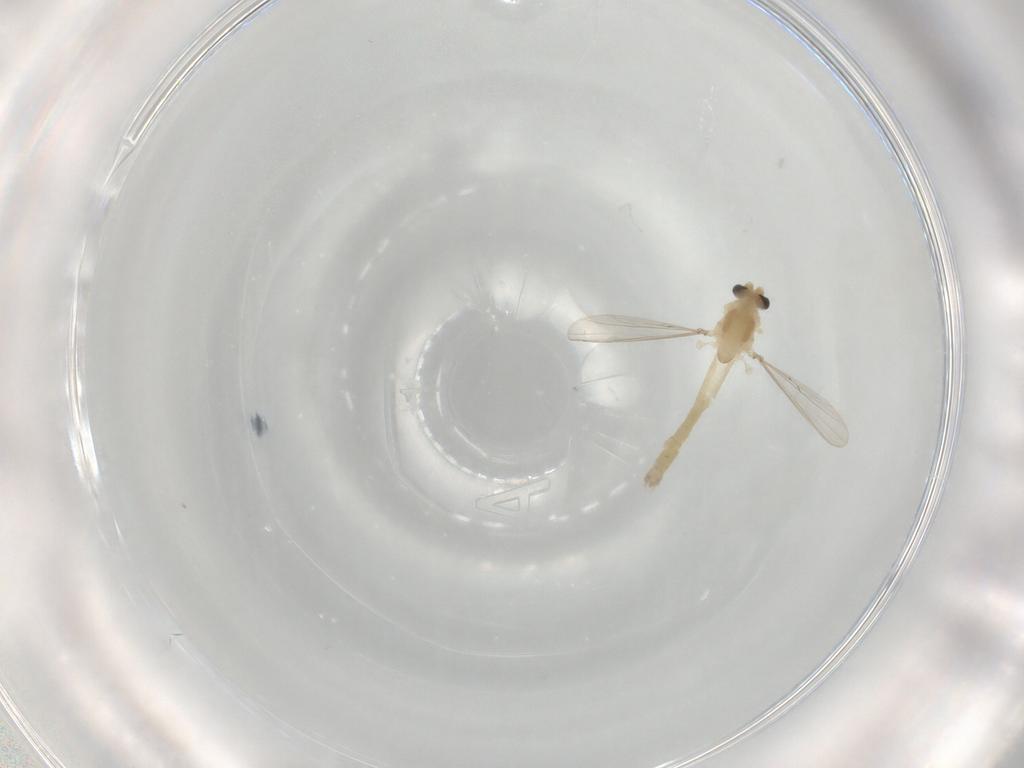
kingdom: Animalia
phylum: Arthropoda
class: Insecta
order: Diptera
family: Chironomidae
